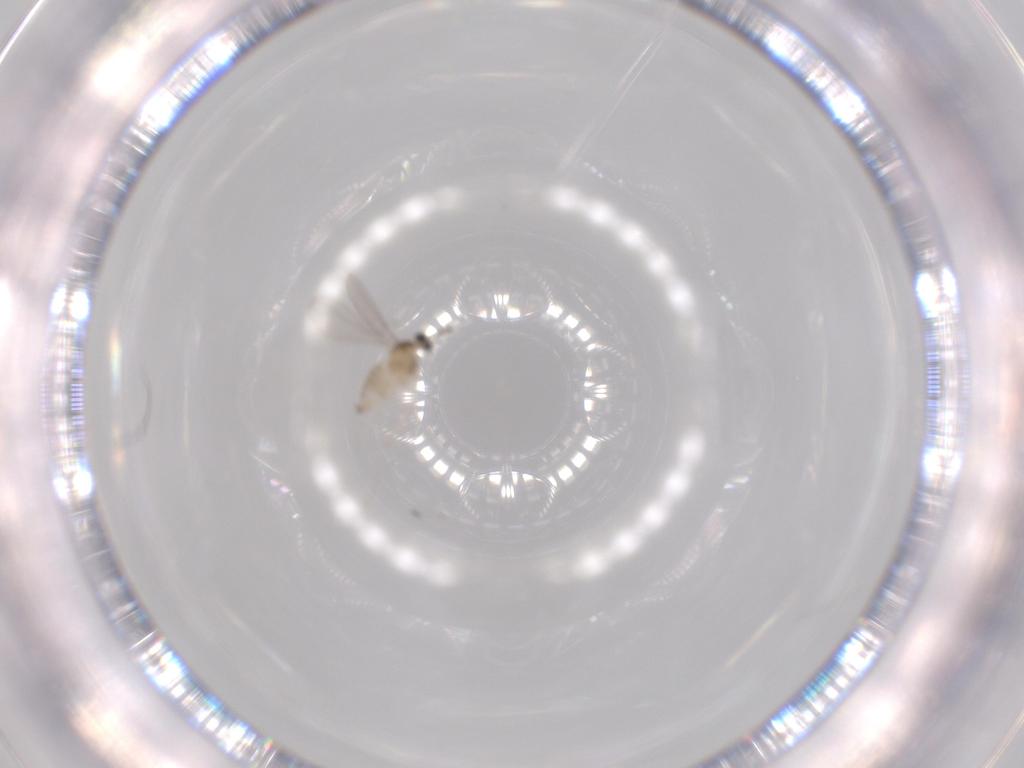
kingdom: Animalia
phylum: Arthropoda
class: Insecta
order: Diptera
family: Cecidomyiidae
